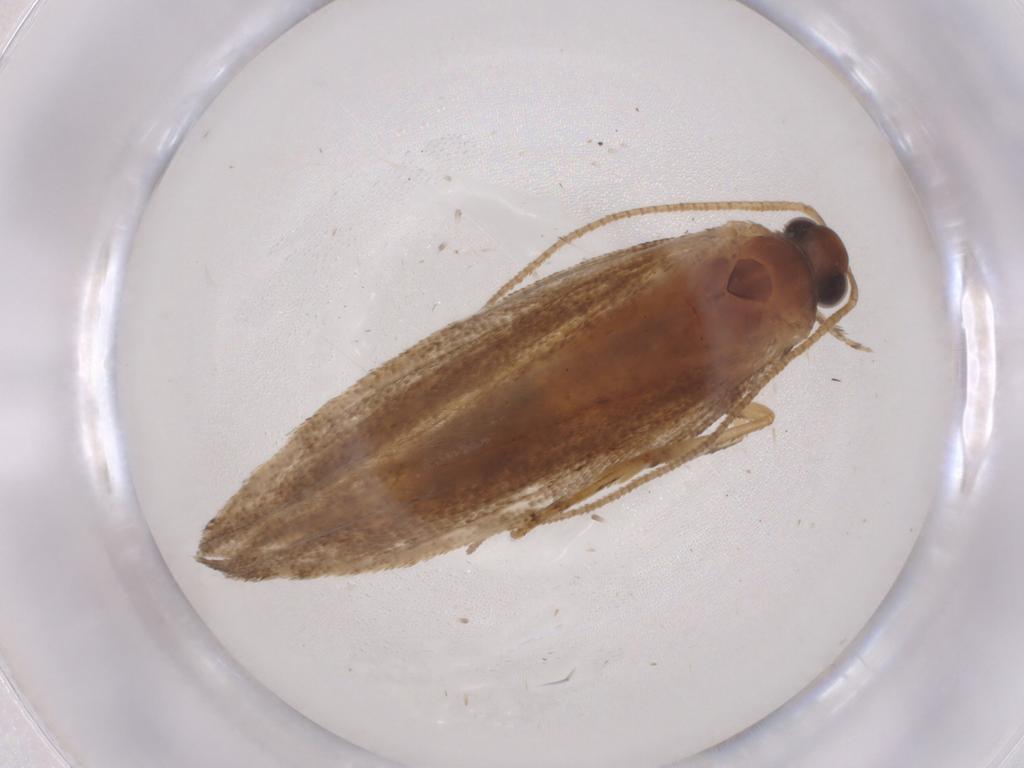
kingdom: Animalia
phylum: Arthropoda
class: Insecta
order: Lepidoptera
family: Gelechiidae
